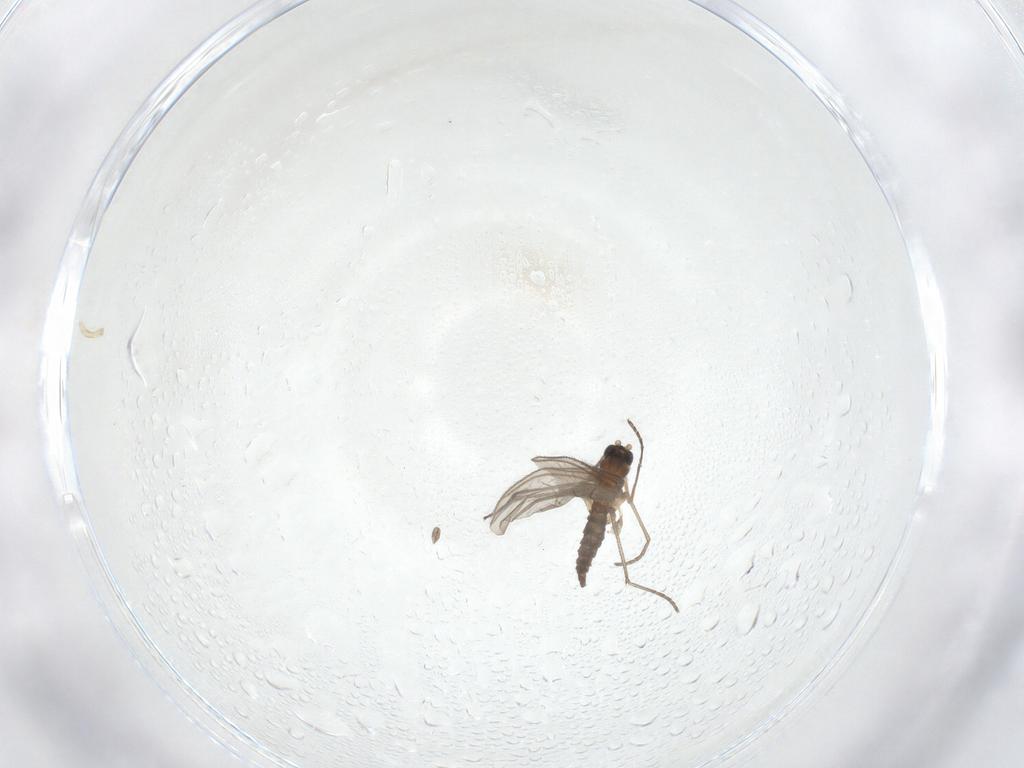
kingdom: Animalia
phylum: Arthropoda
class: Insecta
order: Diptera
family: Sciaridae
